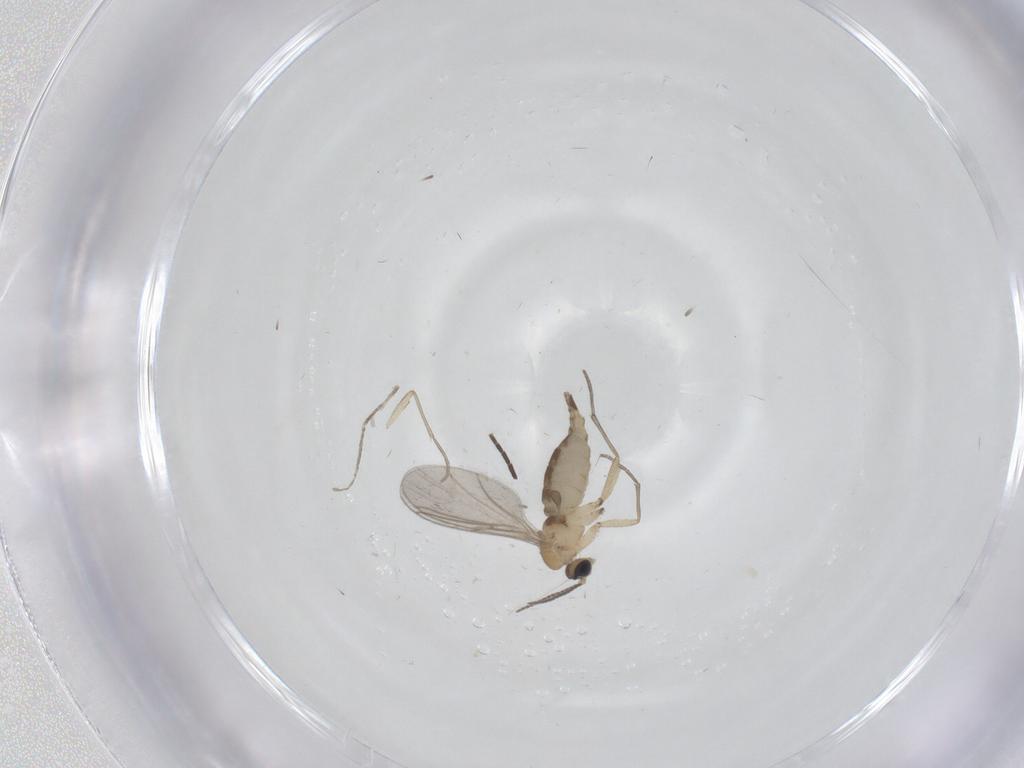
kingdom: Animalia
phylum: Arthropoda
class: Insecta
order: Diptera
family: Sciaridae
